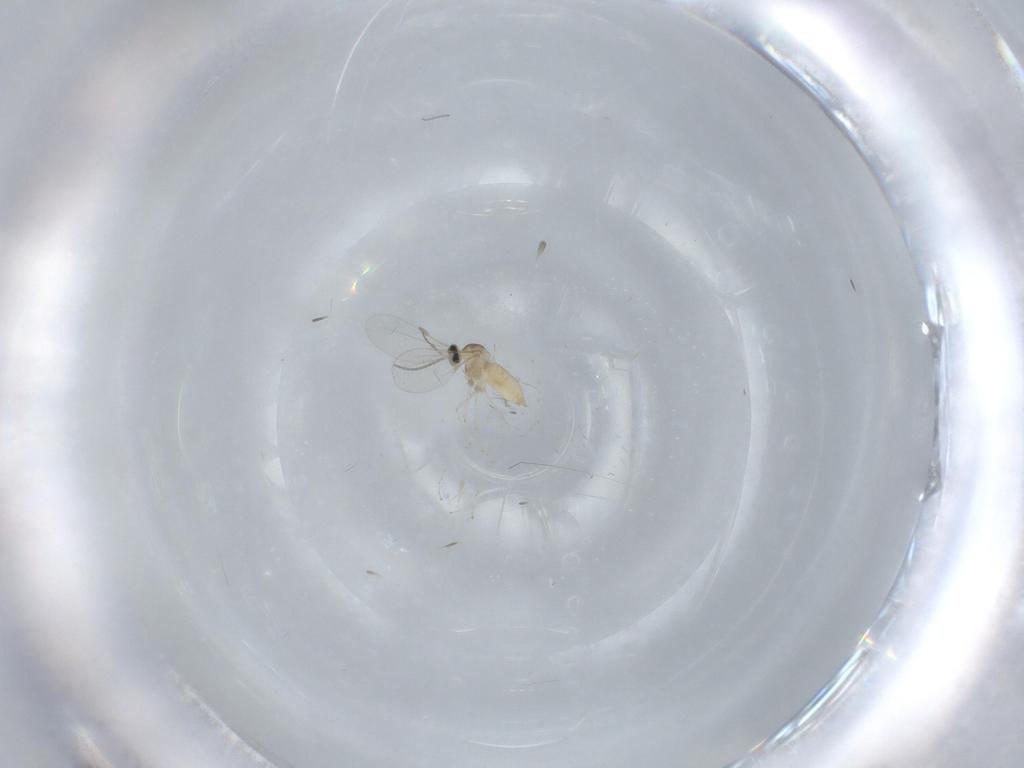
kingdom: Animalia
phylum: Arthropoda
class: Insecta
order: Diptera
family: Cecidomyiidae
